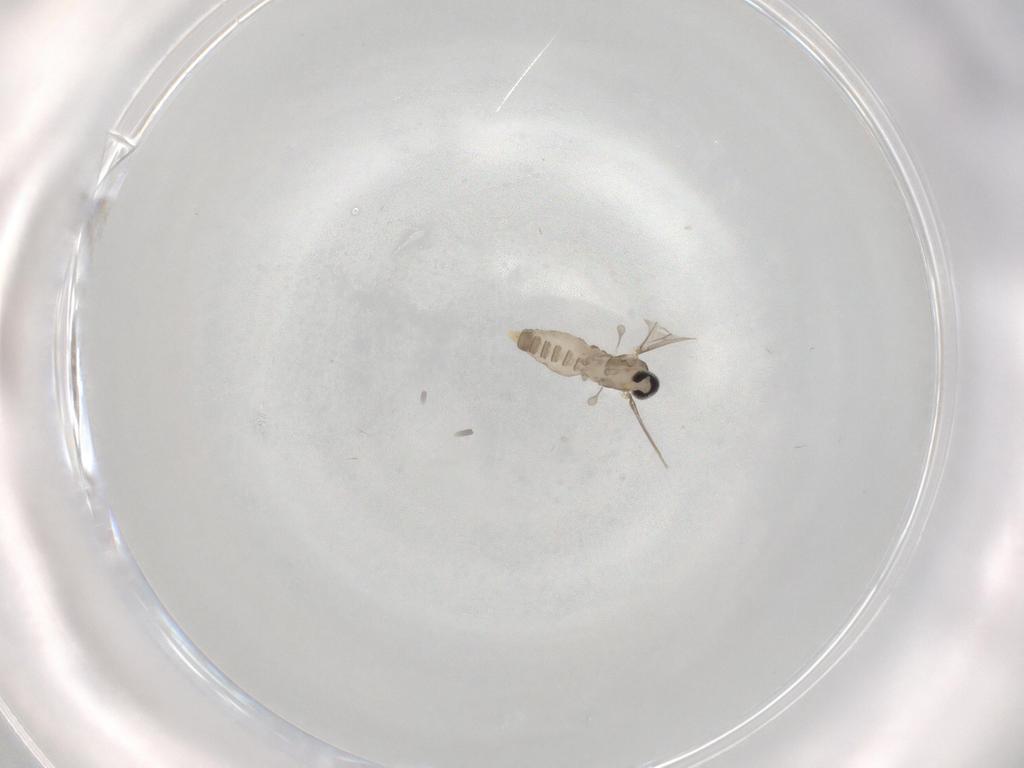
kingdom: Animalia
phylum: Arthropoda
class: Insecta
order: Diptera
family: Cecidomyiidae
